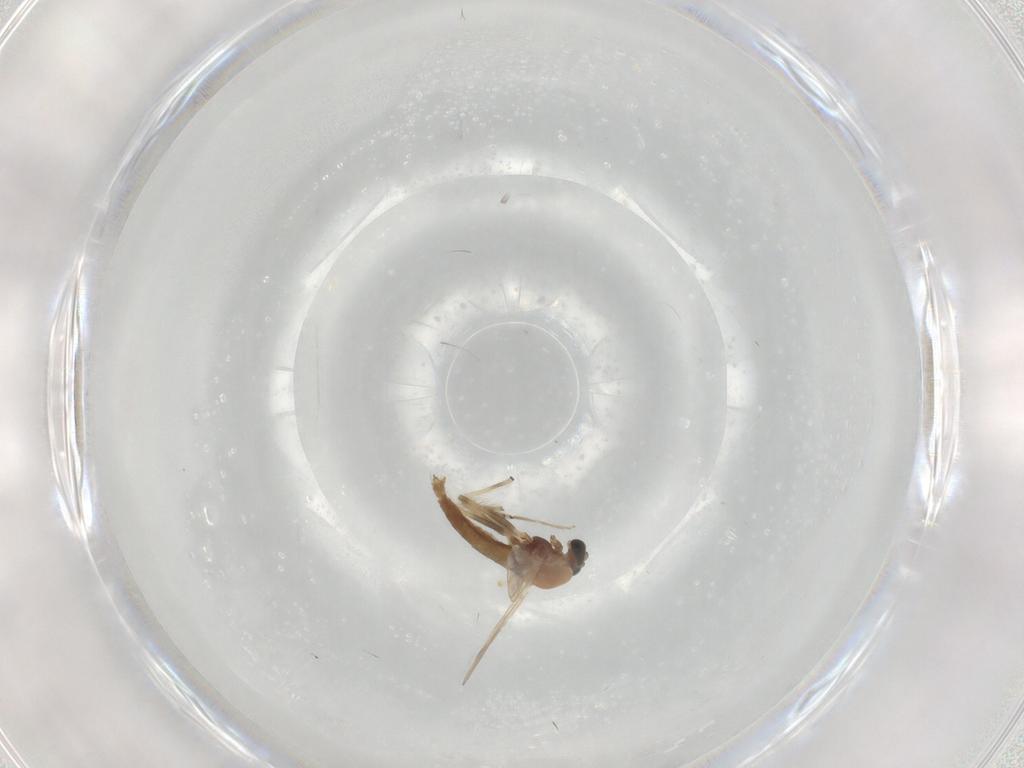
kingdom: Animalia
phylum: Arthropoda
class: Insecta
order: Diptera
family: Chironomidae
